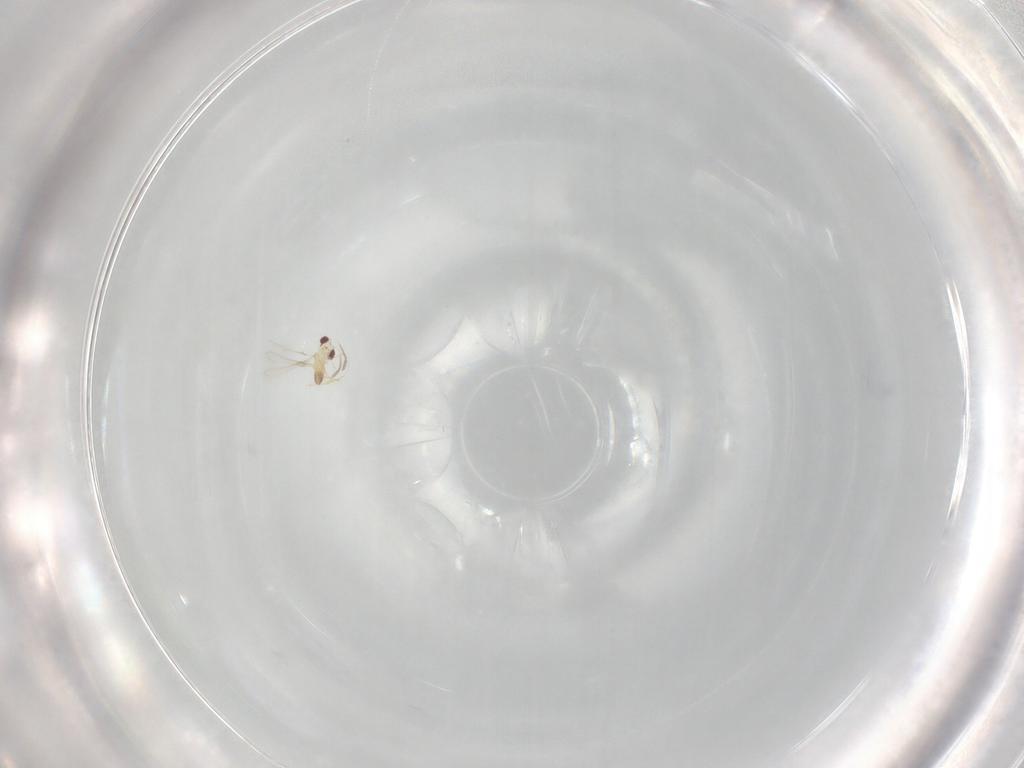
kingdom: Animalia
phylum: Arthropoda
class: Insecta
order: Hymenoptera
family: Mymaridae
